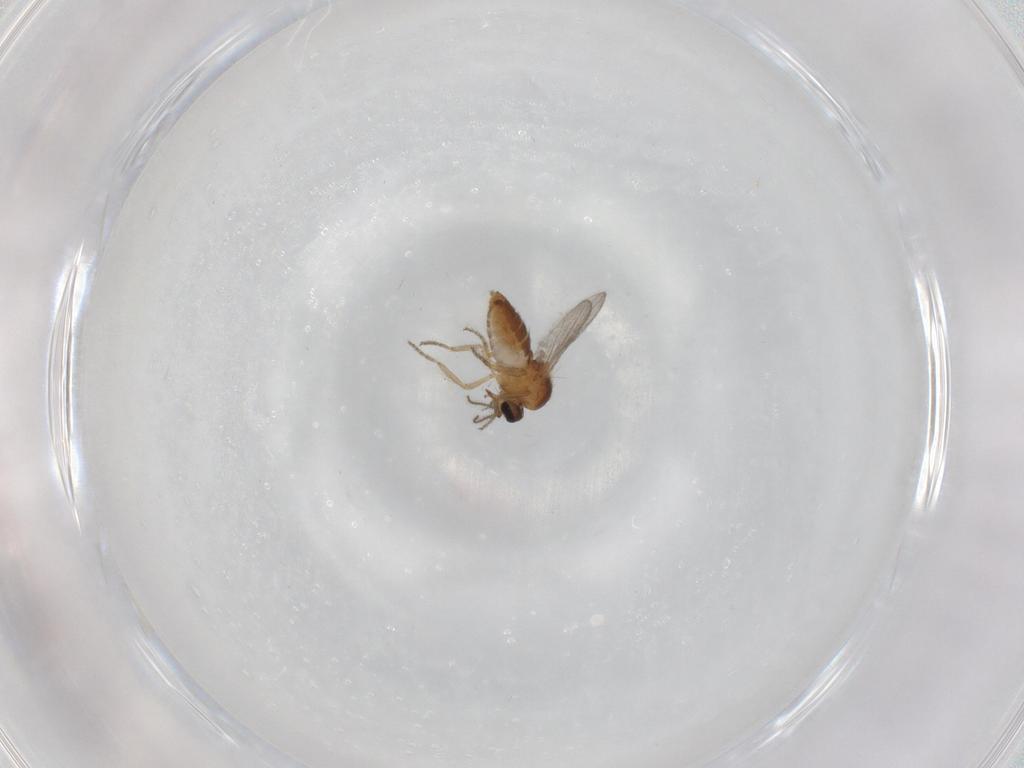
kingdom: Animalia
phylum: Arthropoda
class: Insecta
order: Diptera
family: Ceratopogonidae
